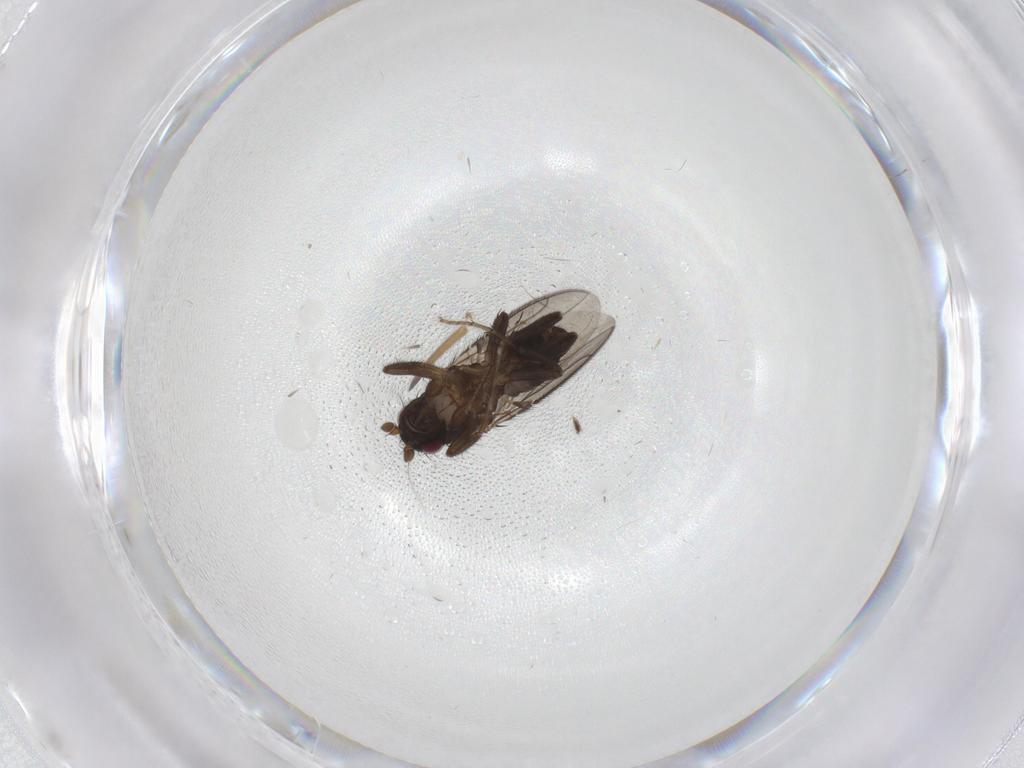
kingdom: Animalia
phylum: Arthropoda
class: Insecta
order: Diptera
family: Sphaeroceridae
